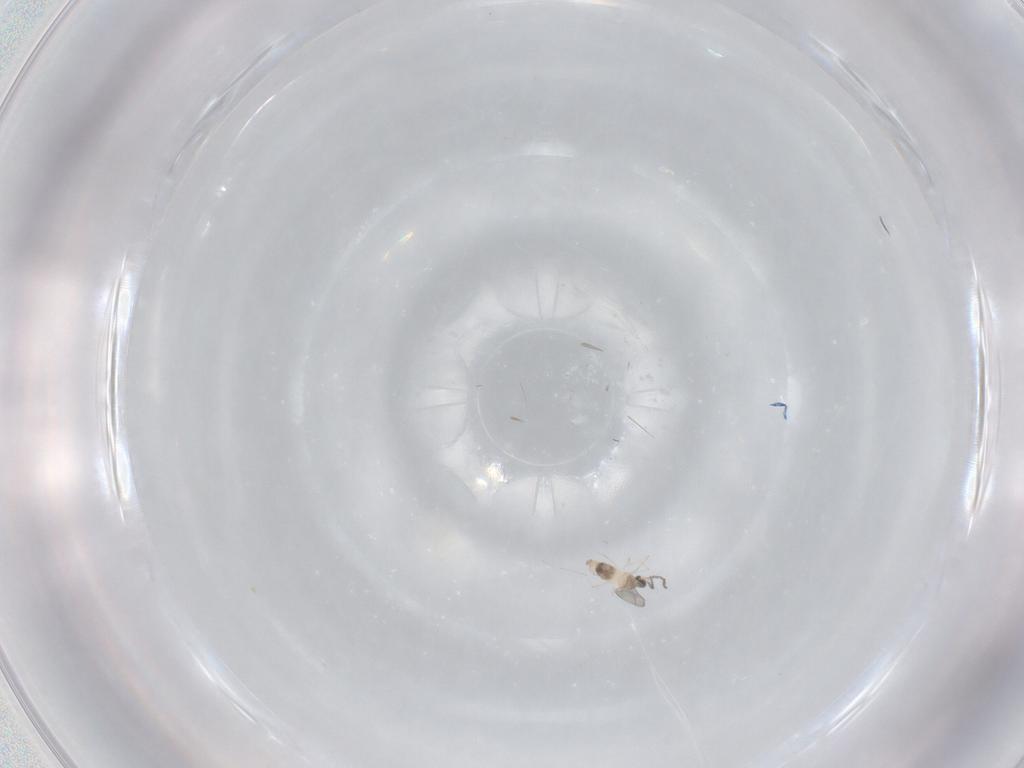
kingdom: Animalia
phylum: Arthropoda
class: Insecta
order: Diptera
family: Cecidomyiidae
